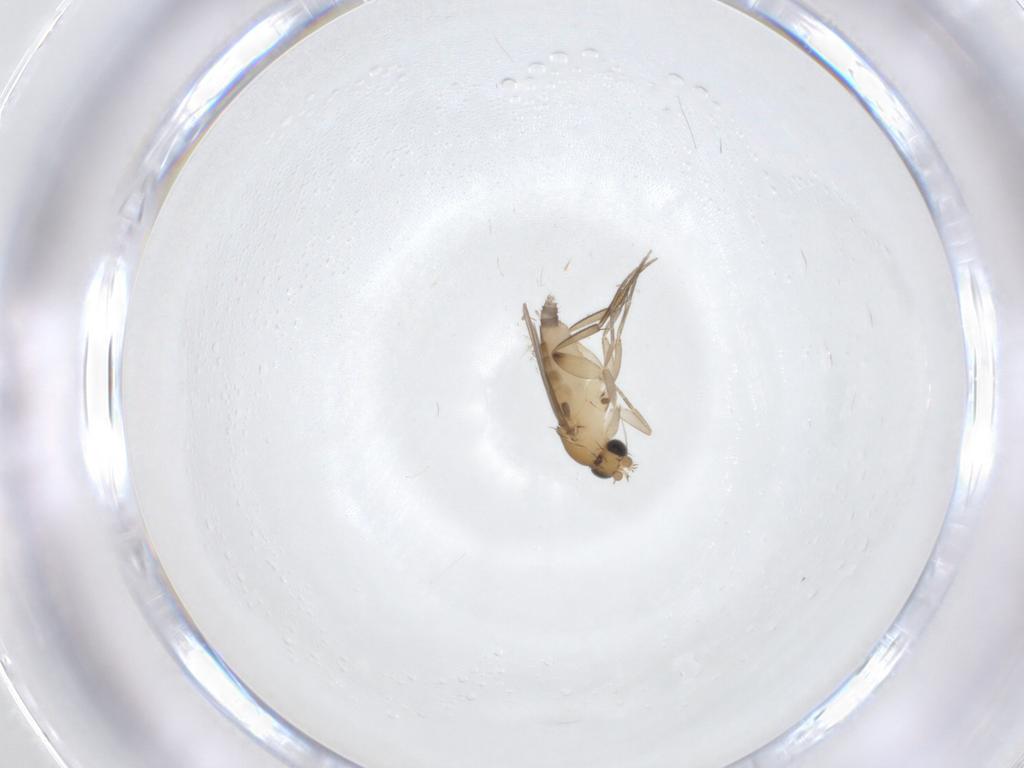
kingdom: Animalia
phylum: Arthropoda
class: Insecta
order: Diptera
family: Phoridae
